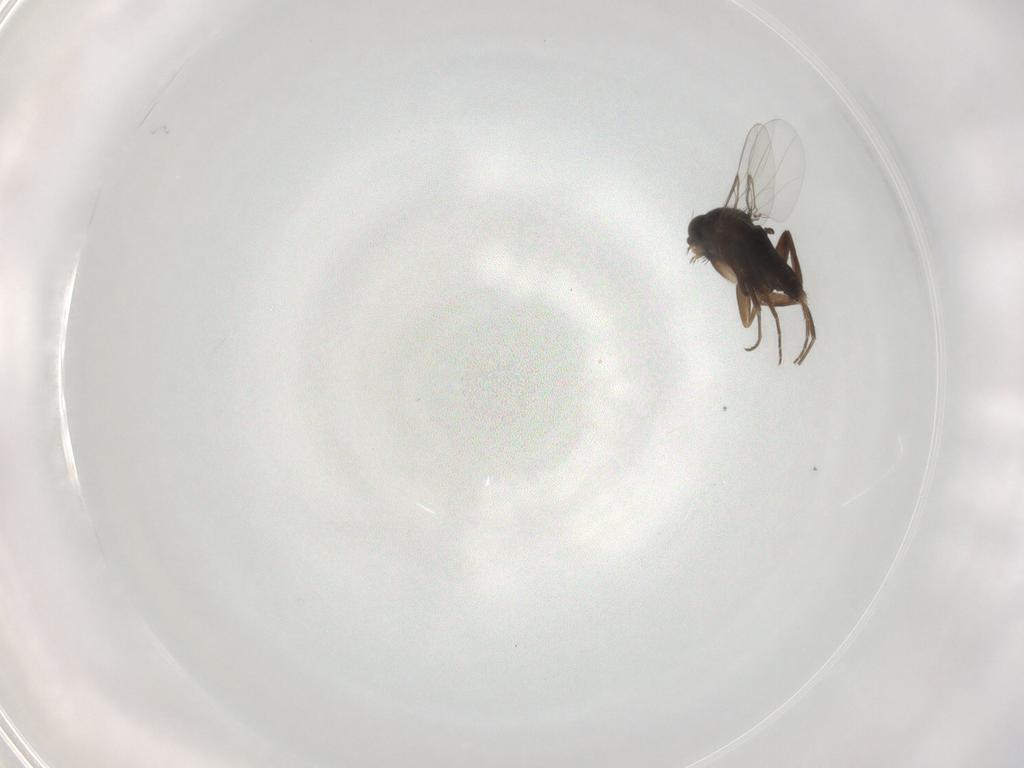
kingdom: Animalia
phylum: Arthropoda
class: Insecta
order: Diptera
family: Phoridae
